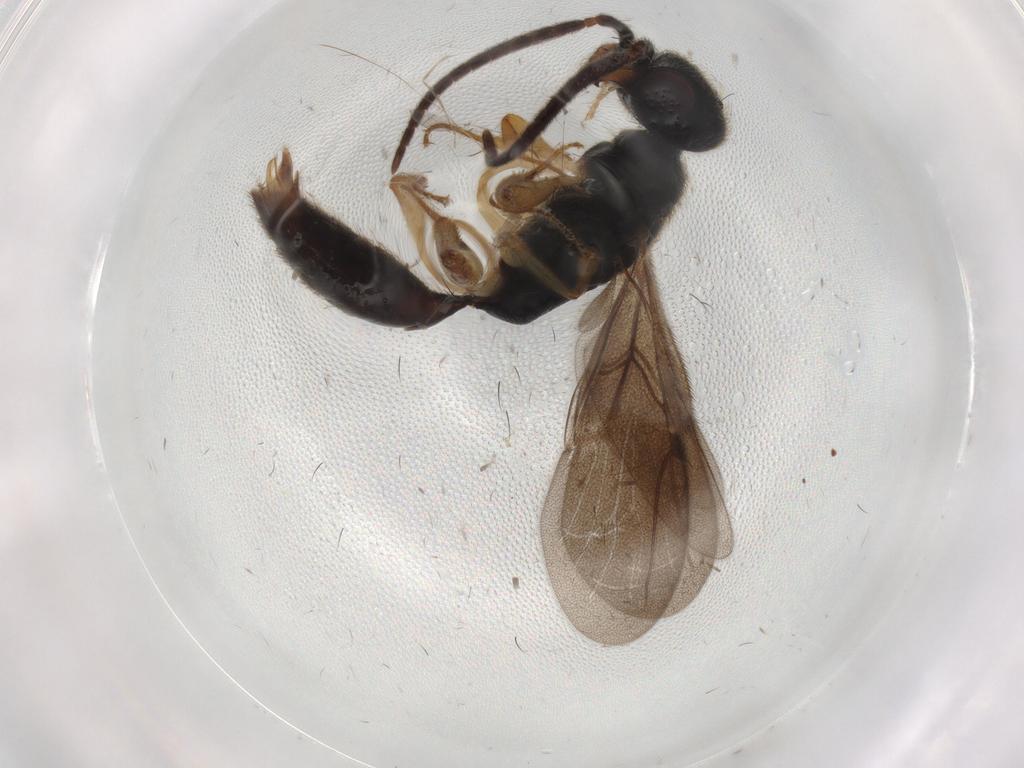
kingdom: Animalia
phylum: Arthropoda
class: Insecta
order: Hymenoptera
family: Bethylidae
